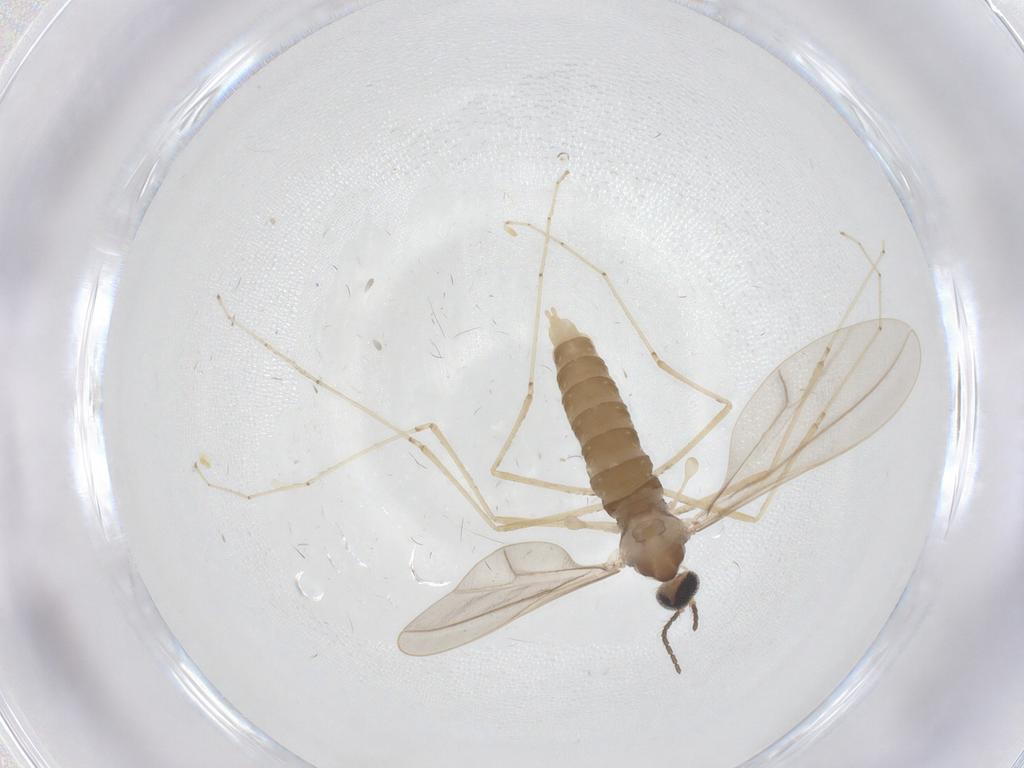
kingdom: Animalia
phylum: Arthropoda
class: Insecta
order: Diptera
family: Cecidomyiidae
